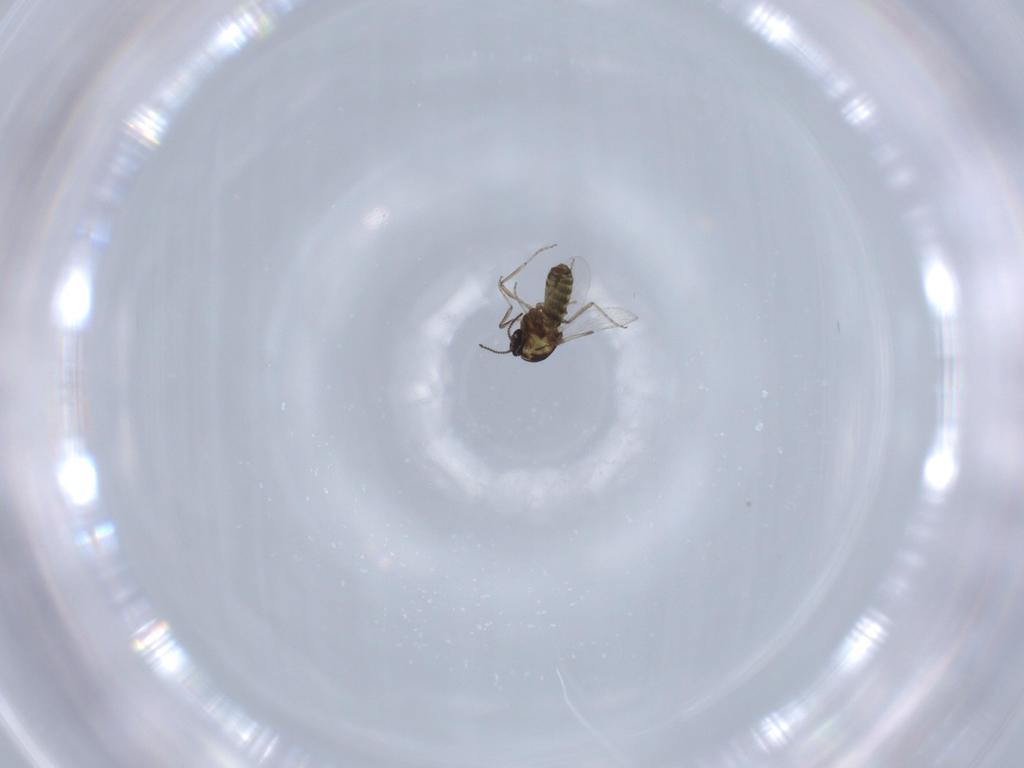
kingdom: Animalia
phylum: Arthropoda
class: Insecta
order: Diptera
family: Ceratopogonidae
